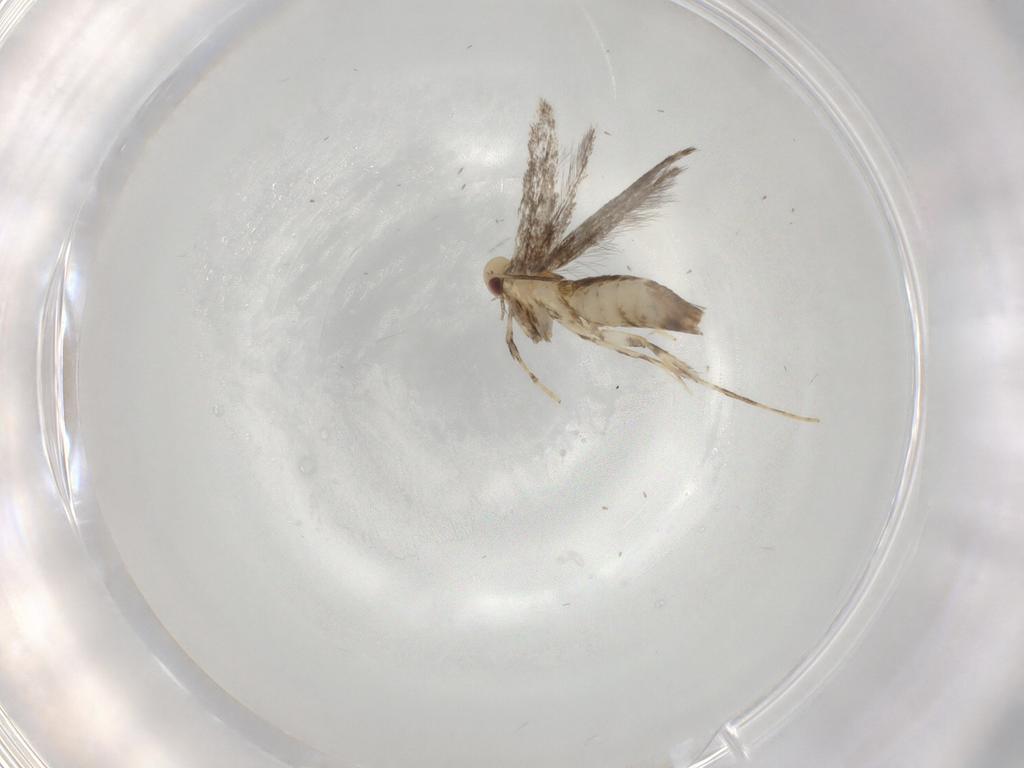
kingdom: Animalia
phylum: Arthropoda
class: Insecta
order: Lepidoptera
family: Gracillariidae
